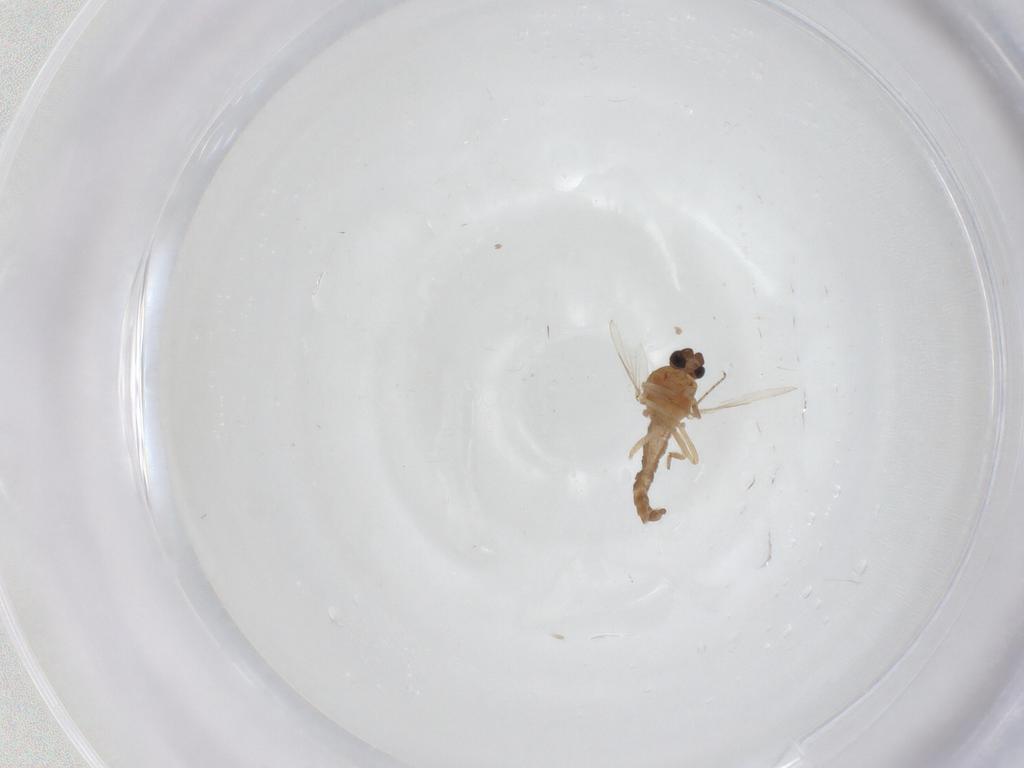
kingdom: Animalia
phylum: Arthropoda
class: Insecta
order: Diptera
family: Ceratopogonidae
